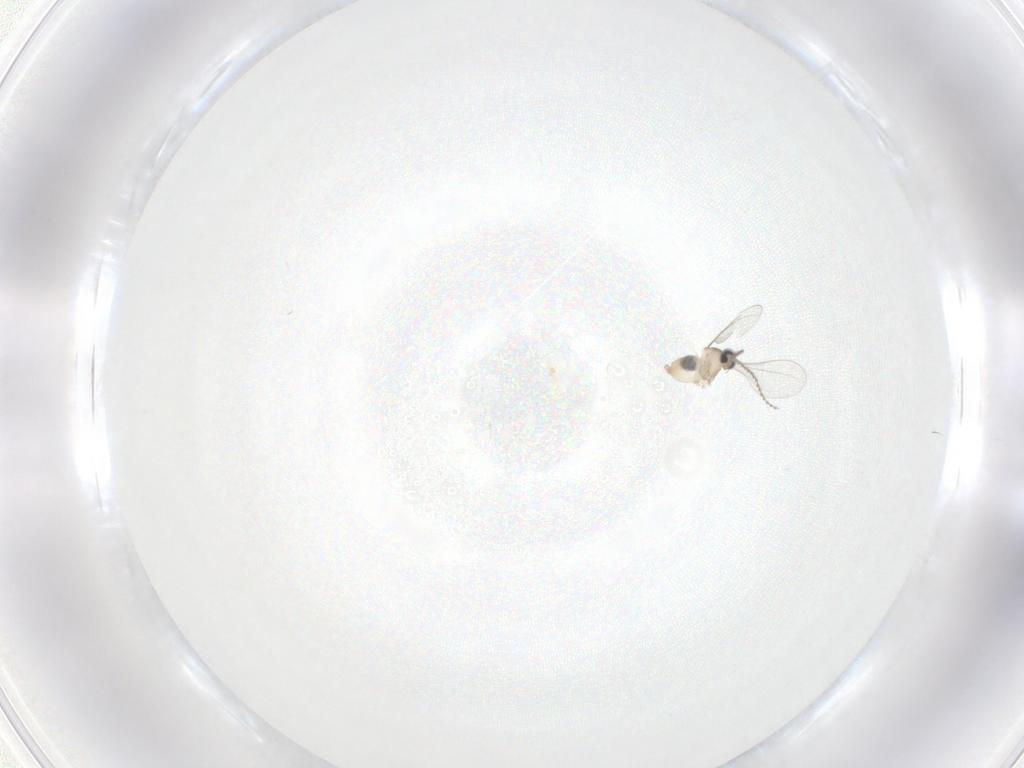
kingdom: Animalia
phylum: Arthropoda
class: Insecta
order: Diptera
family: Cecidomyiidae
